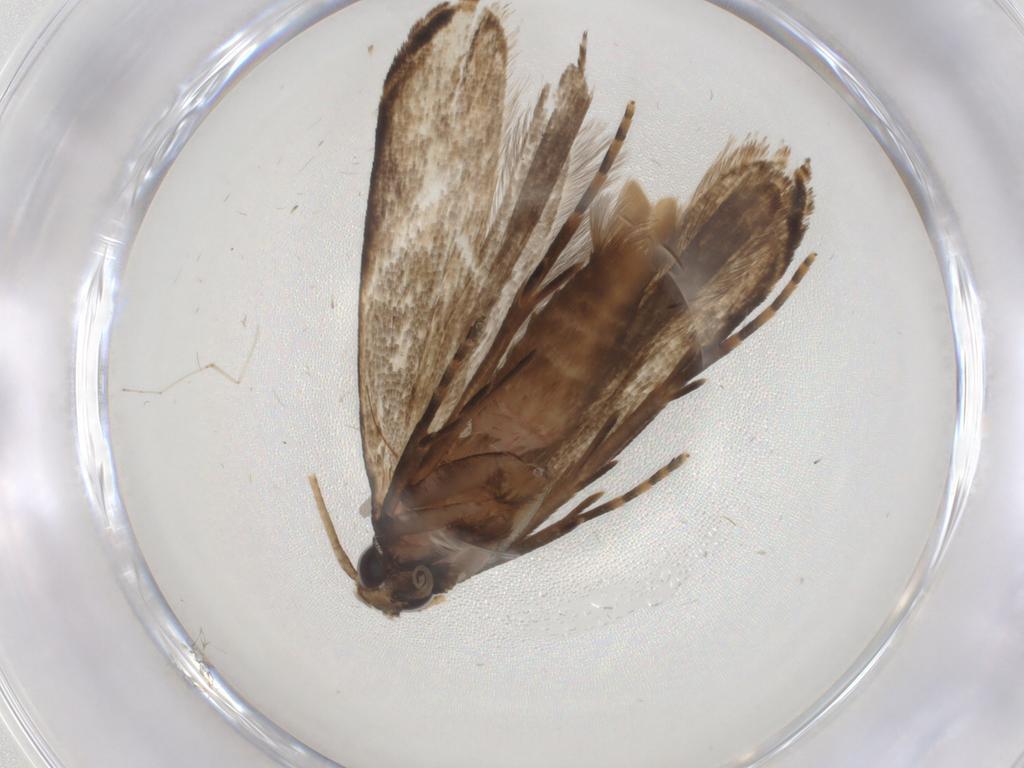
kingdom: Animalia
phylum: Arthropoda
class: Insecta
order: Lepidoptera
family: Gelechiidae
